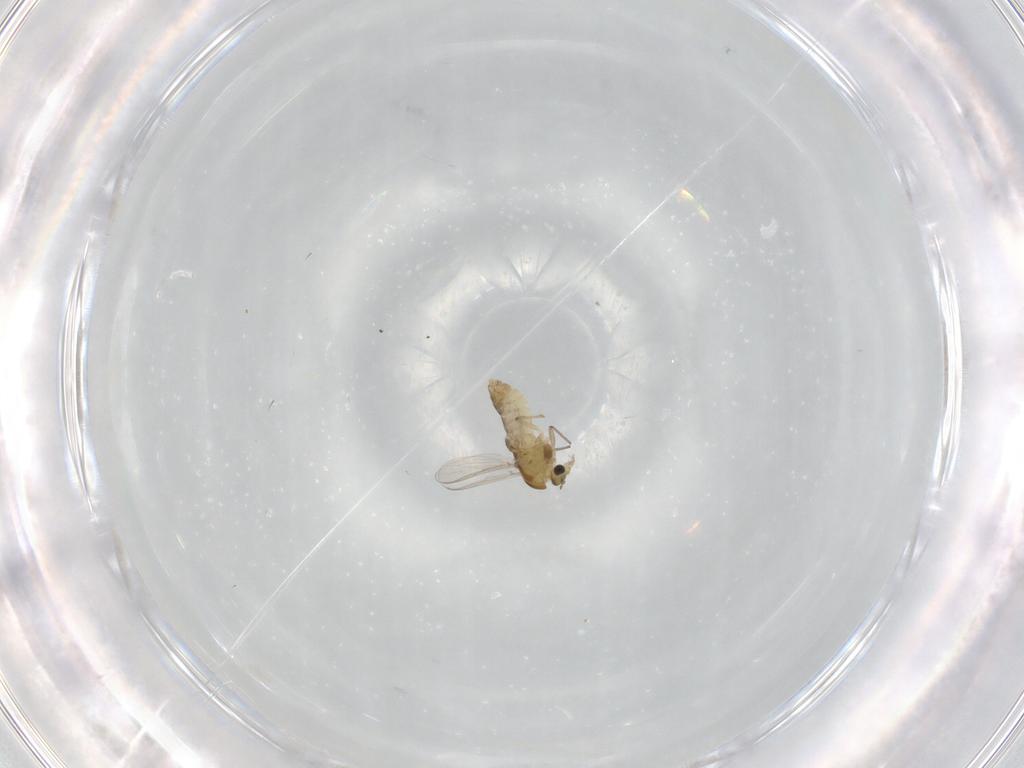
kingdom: Animalia
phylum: Arthropoda
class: Insecta
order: Diptera
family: Chironomidae
